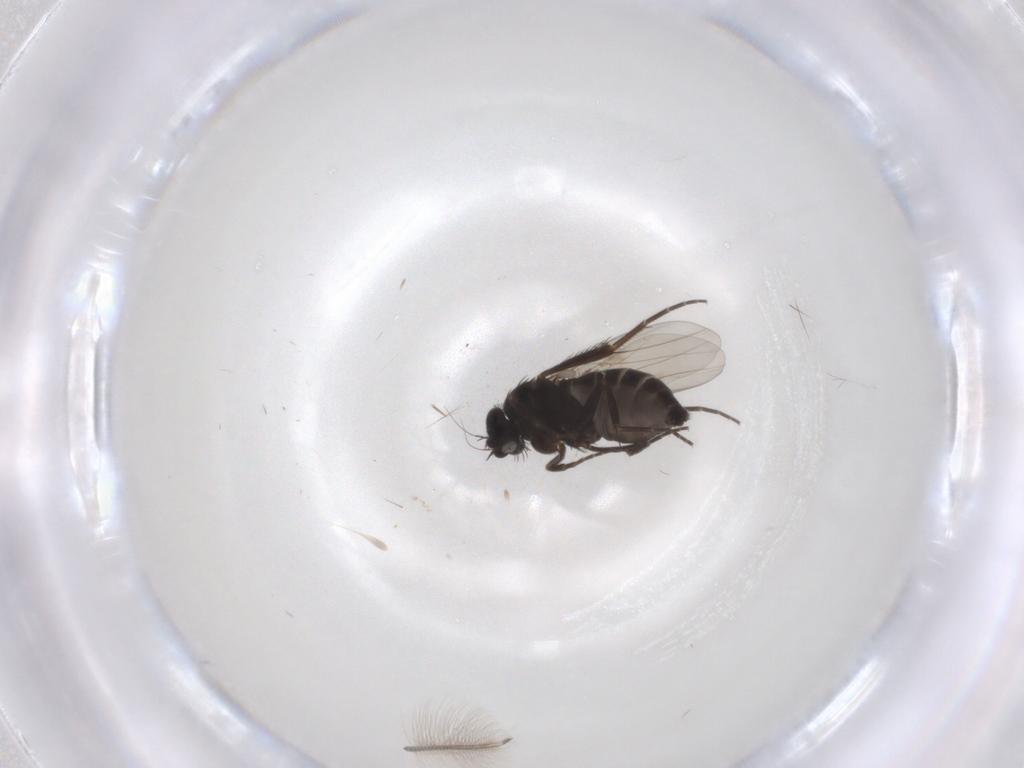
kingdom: Animalia
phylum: Arthropoda
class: Insecta
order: Diptera
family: Phoridae
